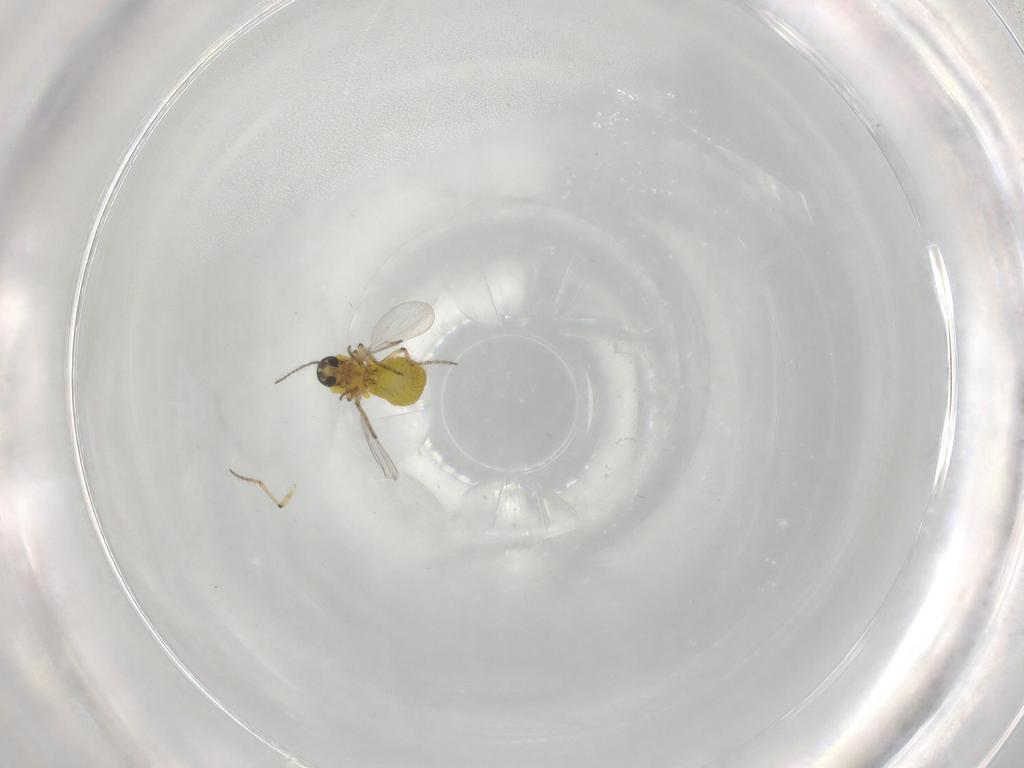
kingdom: Animalia
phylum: Arthropoda
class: Insecta
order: Diptera
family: Ceratopogonidae
